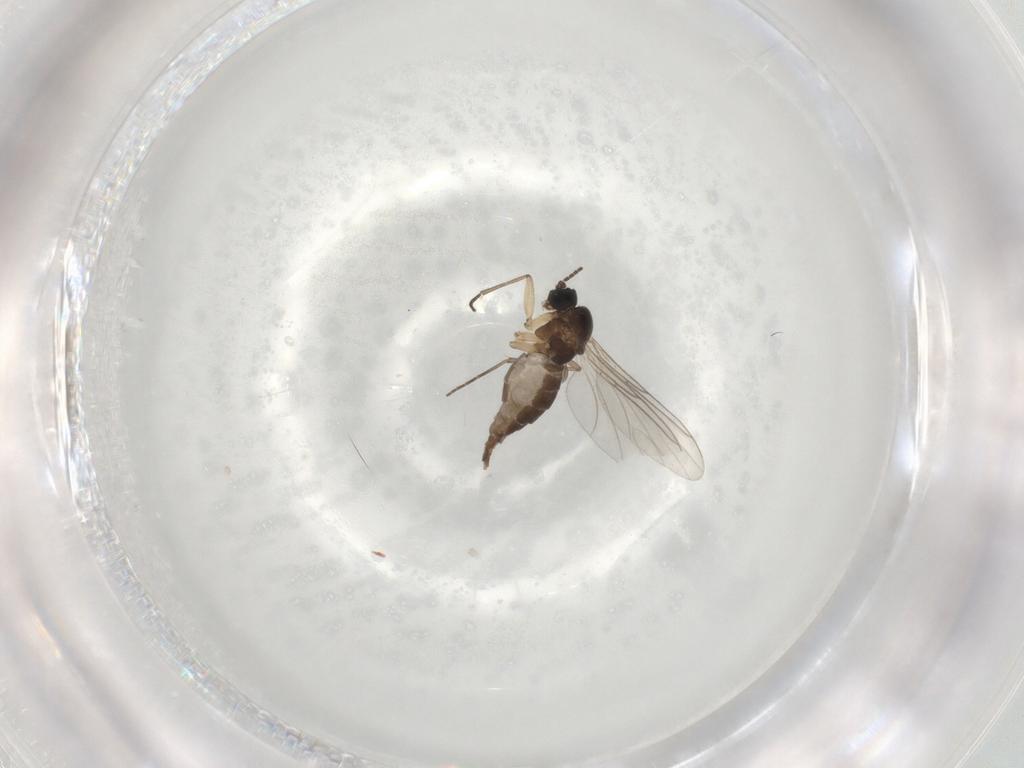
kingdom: Animalia
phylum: Arthropoda
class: Insecta
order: Diptera
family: Sciaridae
